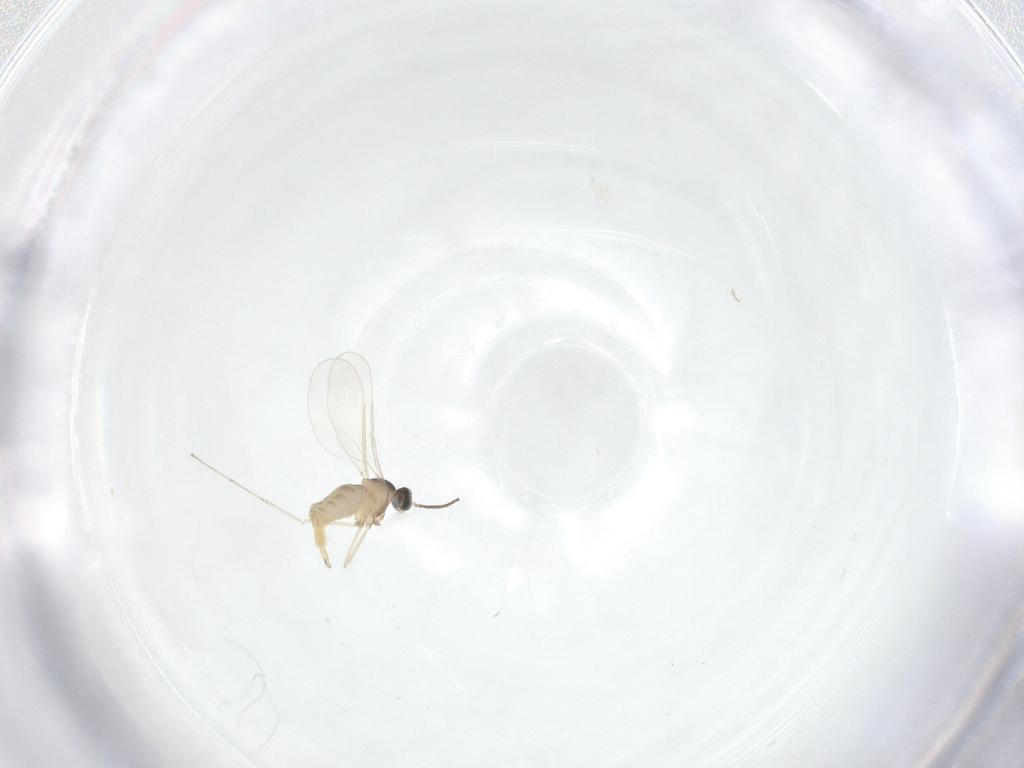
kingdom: Animalia
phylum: Arthropoda
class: Insecta
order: Diptera
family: Cecidomyiidae
